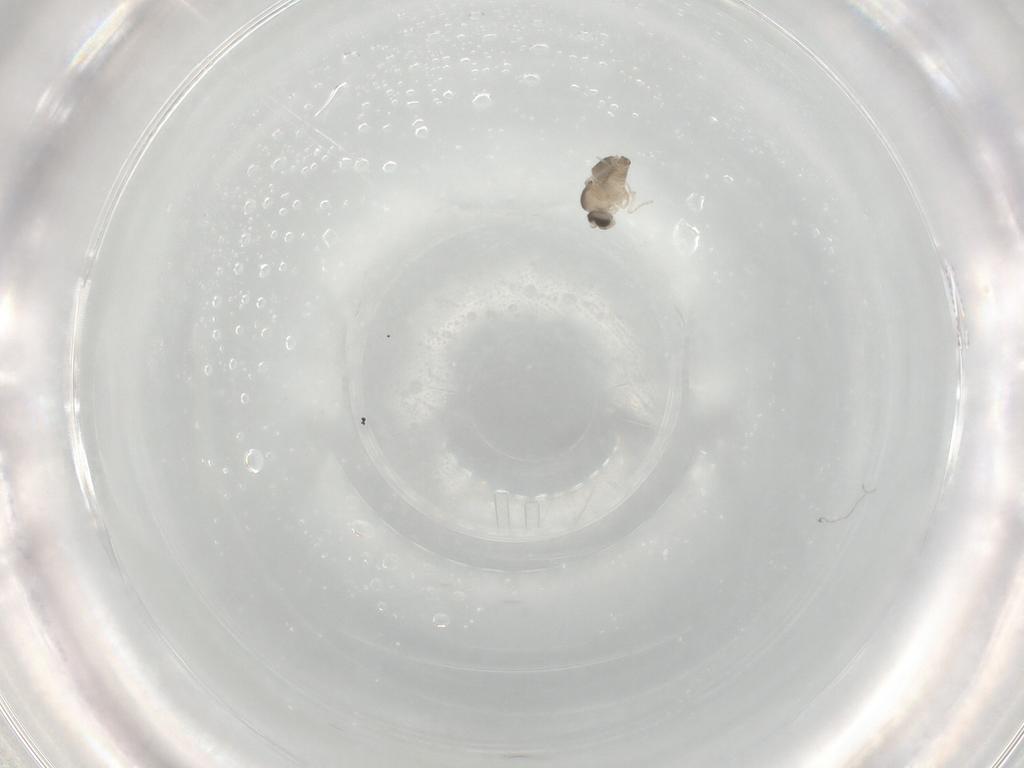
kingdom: Animalia
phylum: Arthropoda
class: Insecta
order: Diptera
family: Cecidomyiidae
